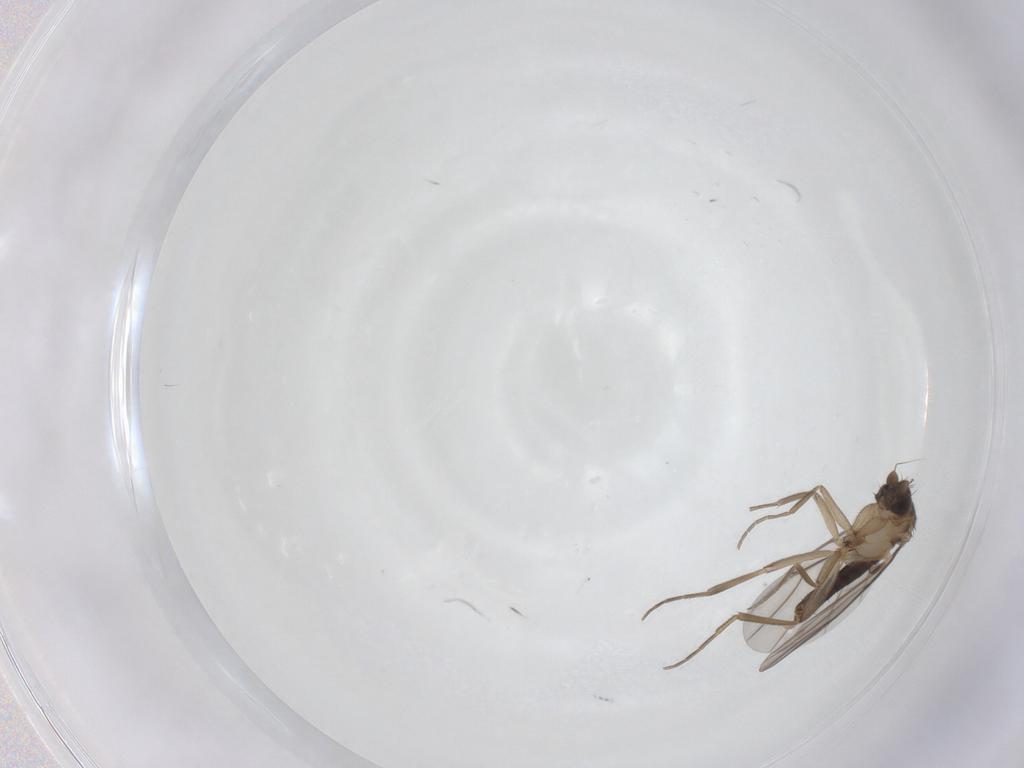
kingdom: Animalia
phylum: Arthropoda
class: Insecta
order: Diptera
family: Phoridae
